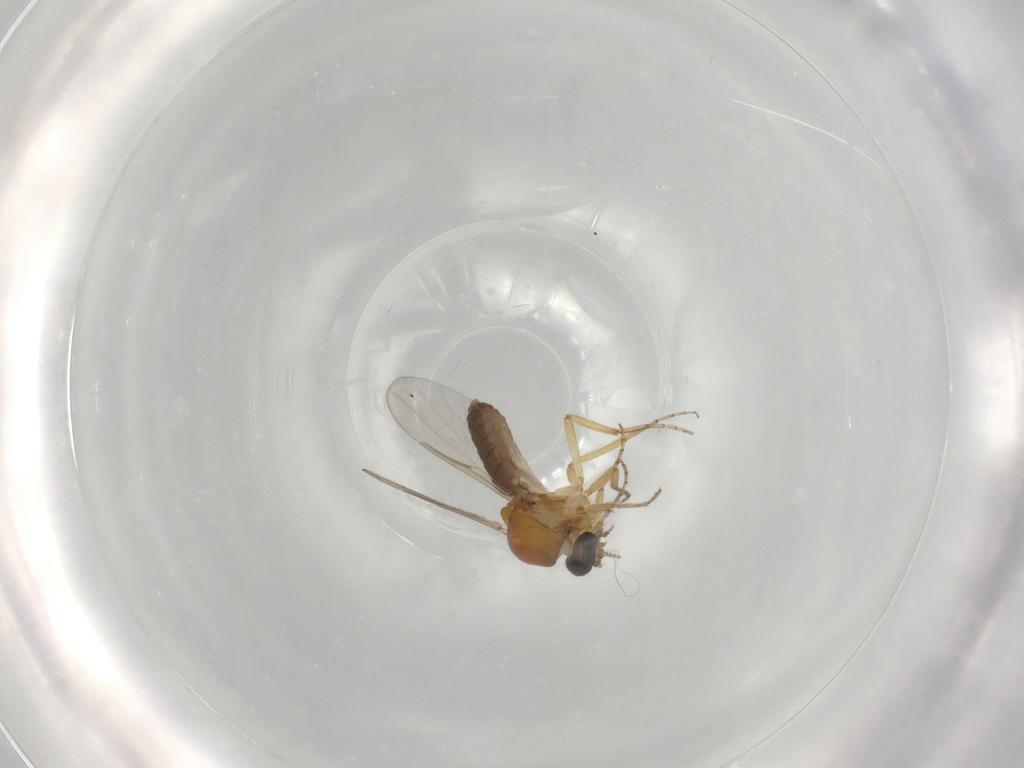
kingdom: Animalia
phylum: Arthropoda
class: Insecta
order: Diptera
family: Ceratopogonidae
